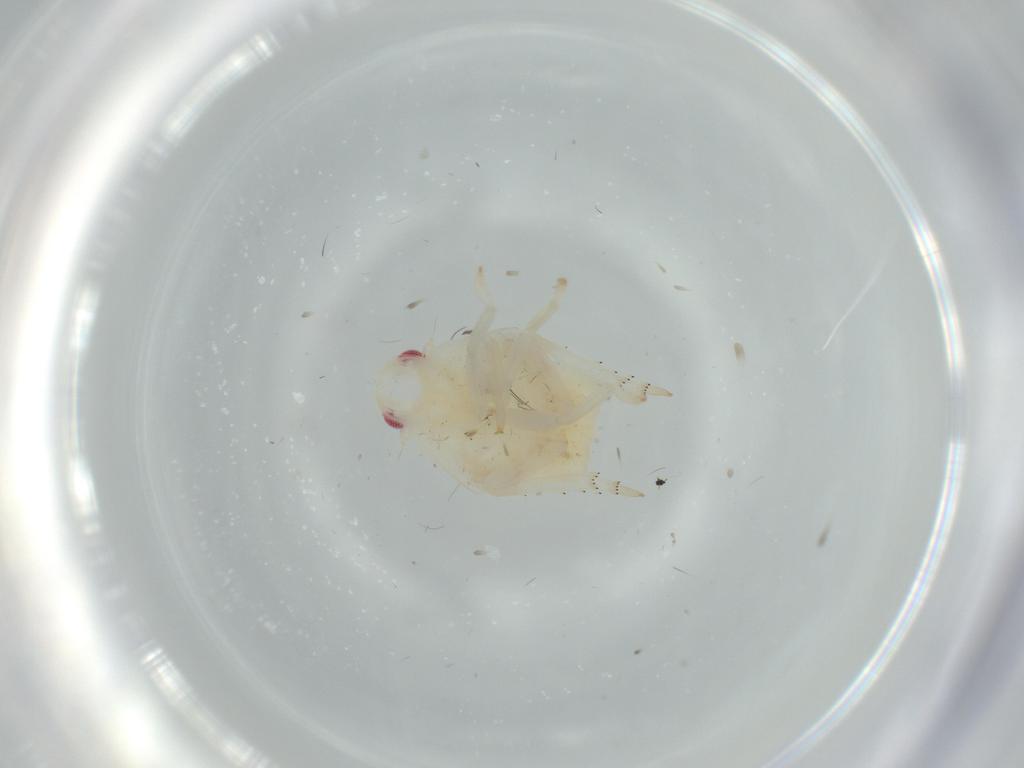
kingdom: Animalia
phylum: Arthropoda
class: Insecta
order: Hemiptera
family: Flatidae
